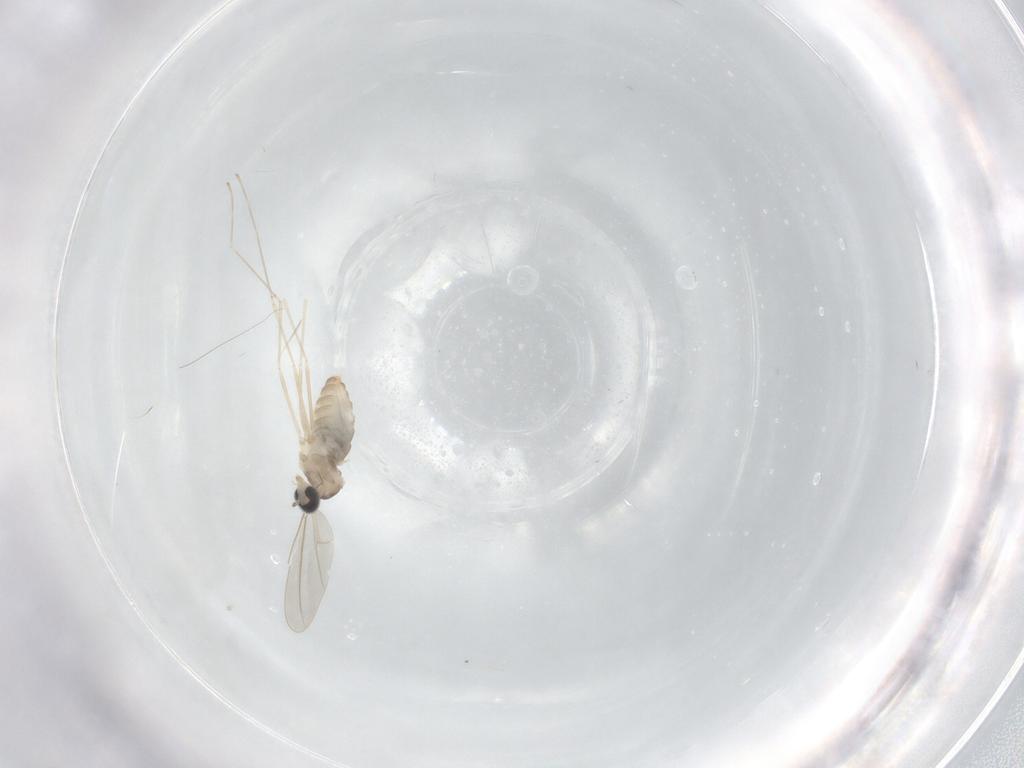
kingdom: Animalia
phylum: Arthropoda
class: Insecta
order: Diptera
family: Cecidomyiidae
